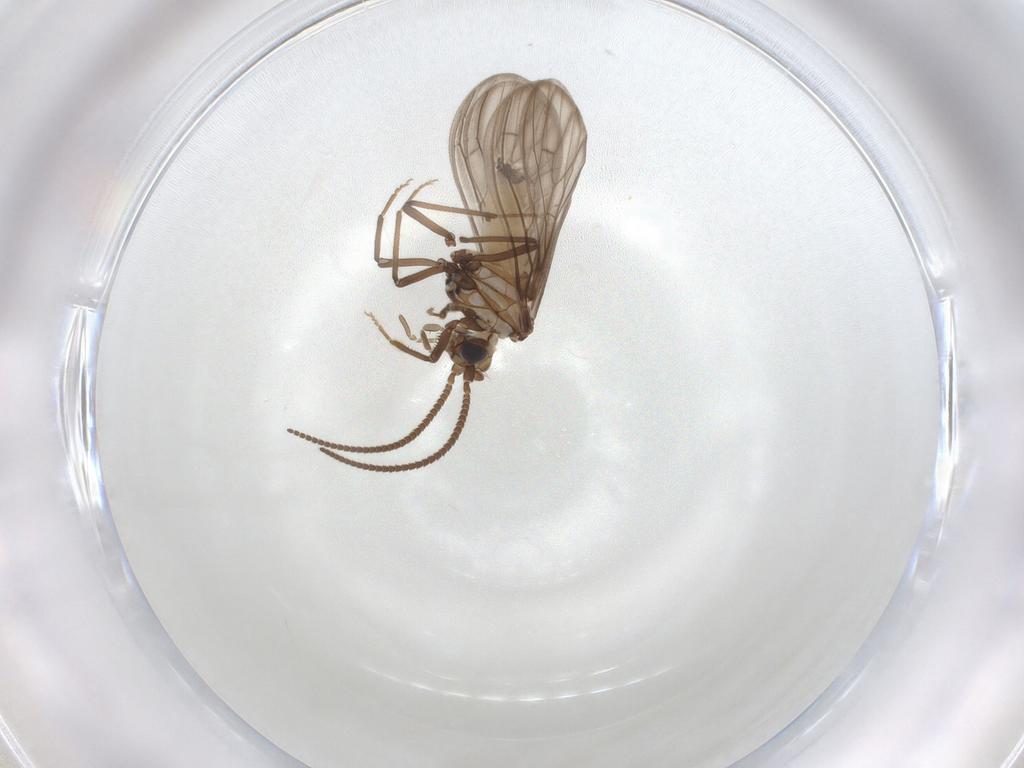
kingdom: Animalia
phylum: Arthropoda
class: Insecta
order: Neuroptera
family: Coniopterygidae
